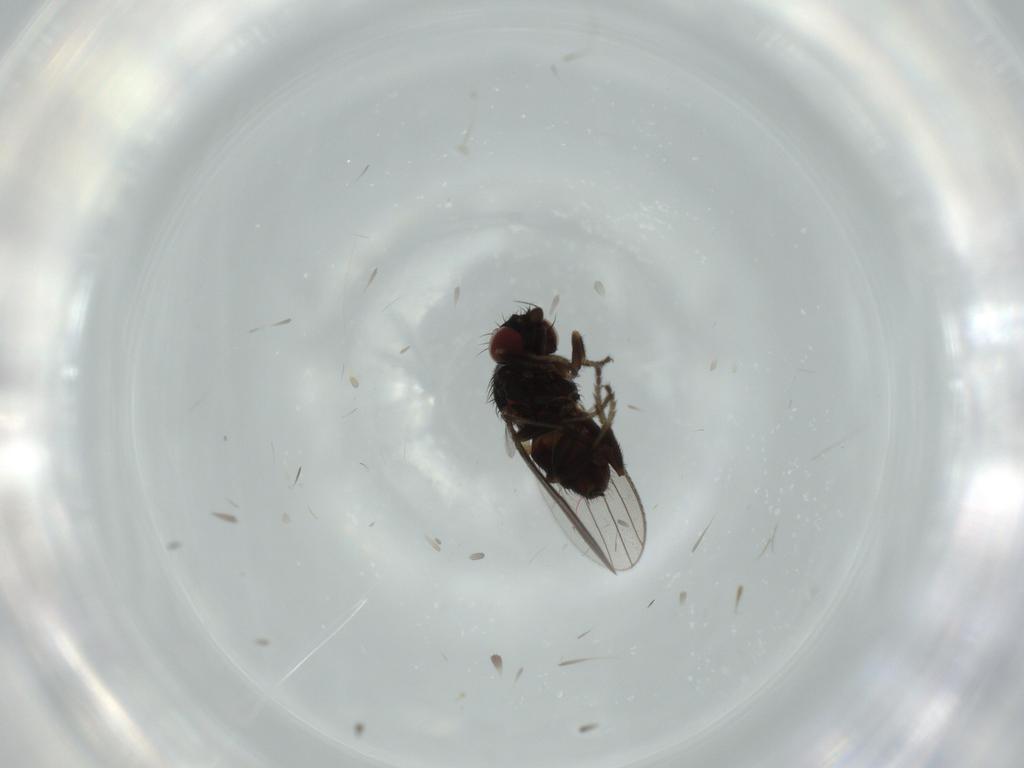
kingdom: Animalia
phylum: Arthropoda
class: Insecta
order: Diptera
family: Milichiidae
